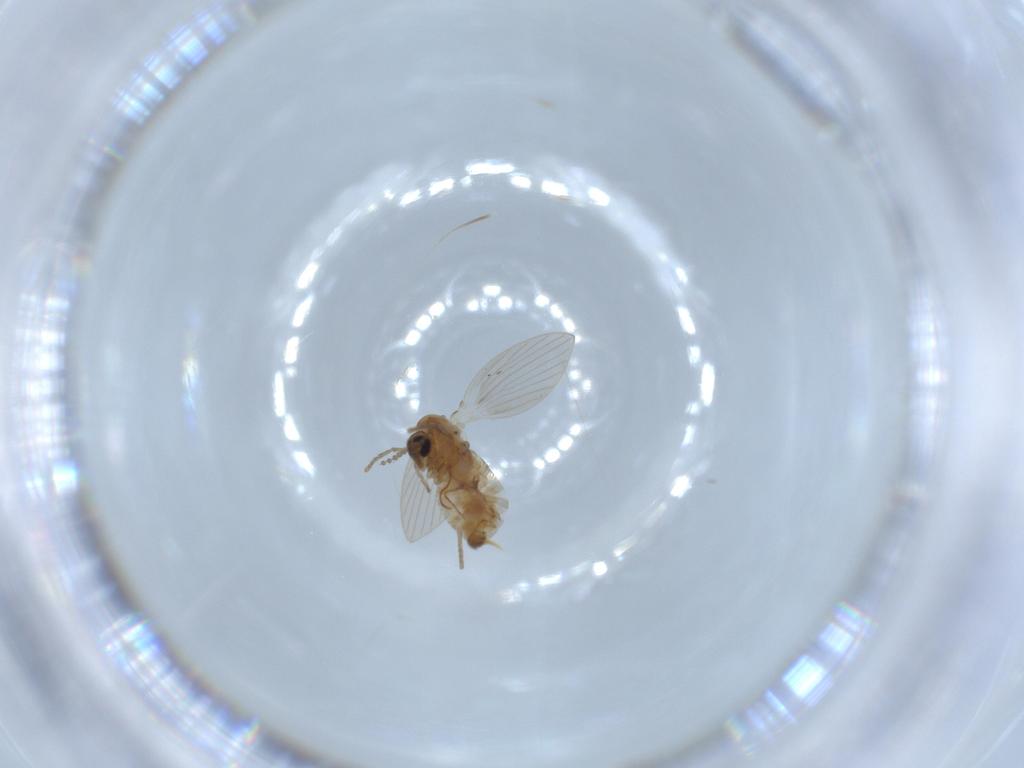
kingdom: Animalia
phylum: Arthropoda
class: Insecta
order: Diptera
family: Psychodidae
